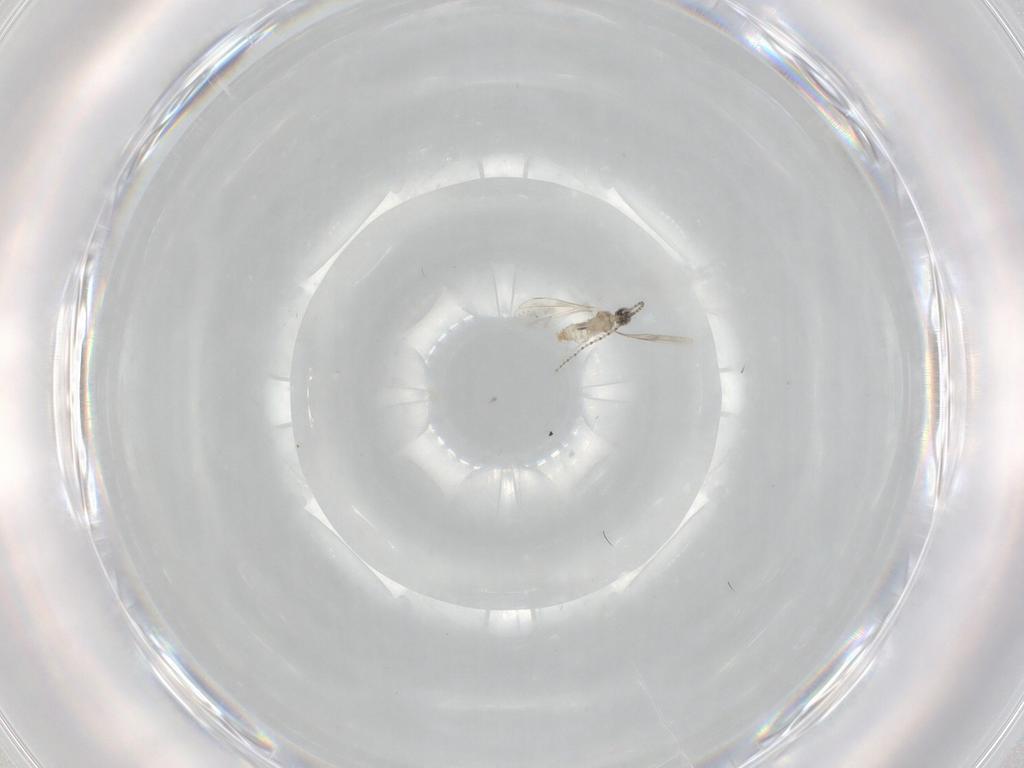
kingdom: Animalia
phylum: Arthropoda
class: Insecta
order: Diptera
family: Cecidomyiidae
